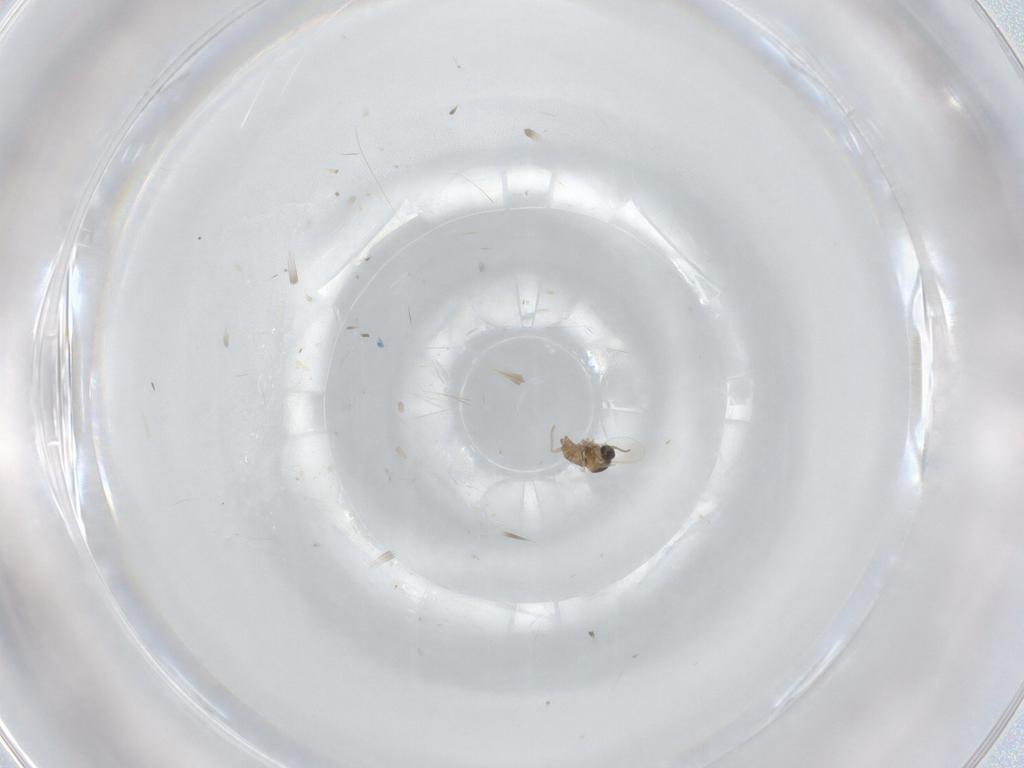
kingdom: Animalia
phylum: Arthropoda
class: Insecta
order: Diptera
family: Cecidomyiidae
